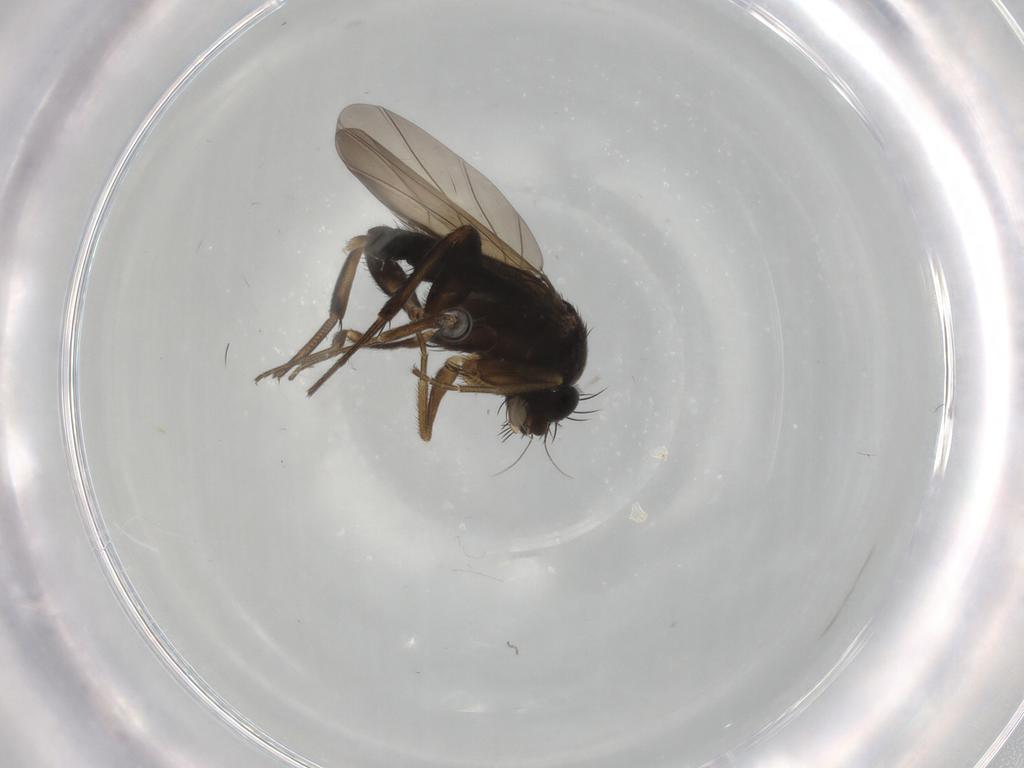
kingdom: Animalia
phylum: Arthropoda
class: Insecta
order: Diptera
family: Phoridae
